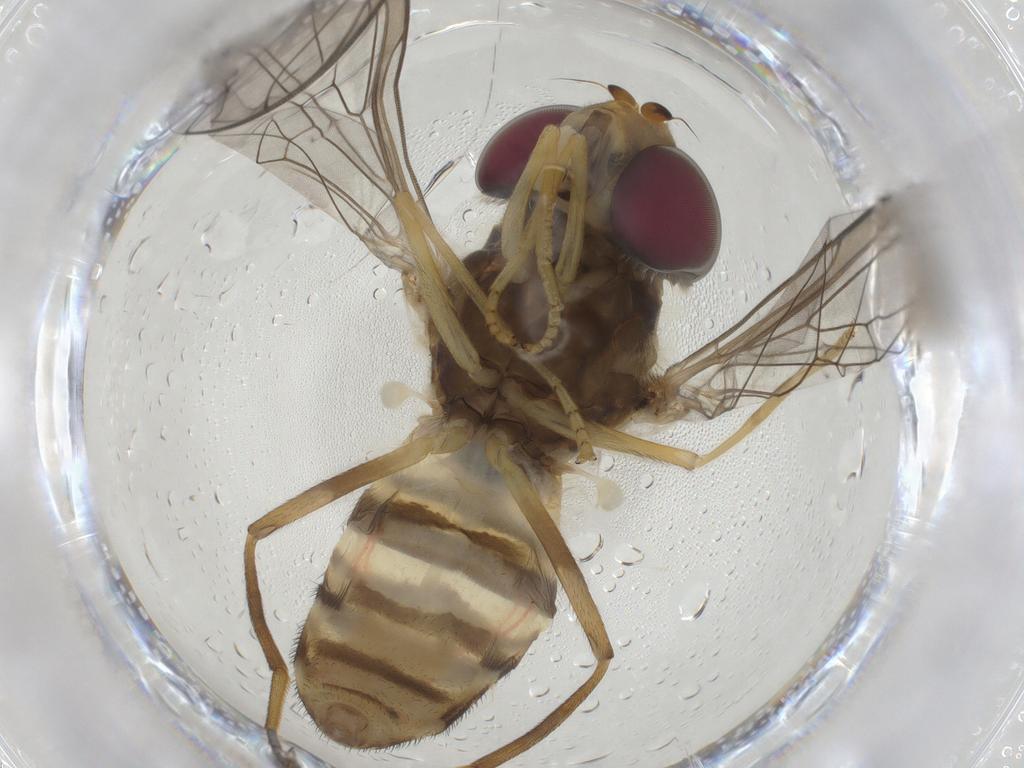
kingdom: Animalia
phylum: Arthropoda
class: Insecta
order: Diptera
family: Syrphidae
